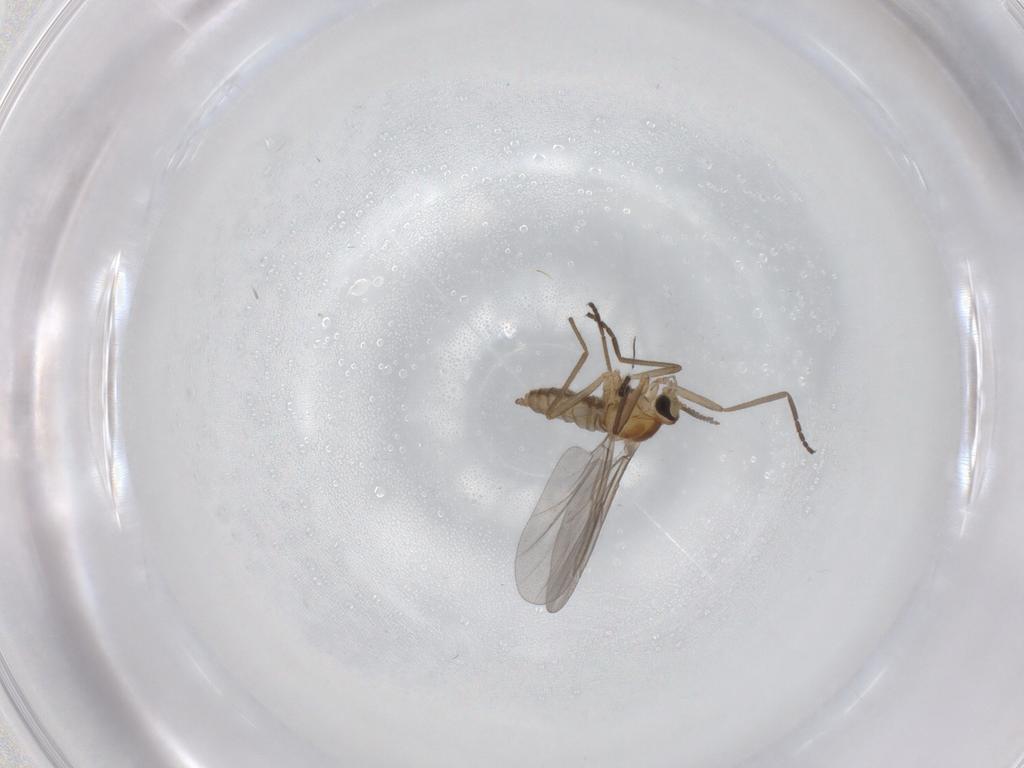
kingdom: Animalia
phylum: Arthropoda
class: Insecta
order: Diptera
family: Cecidomyiidae
